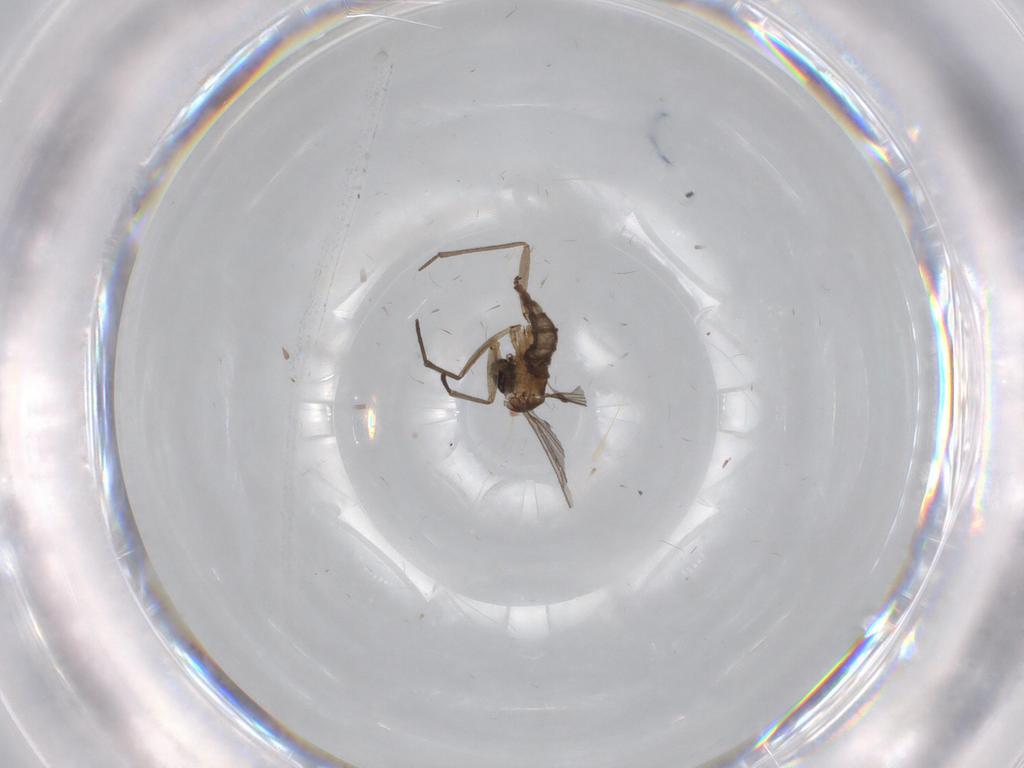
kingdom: Animalia
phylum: Arthropoda
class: Insecta
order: Diptera
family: Sciaridae
